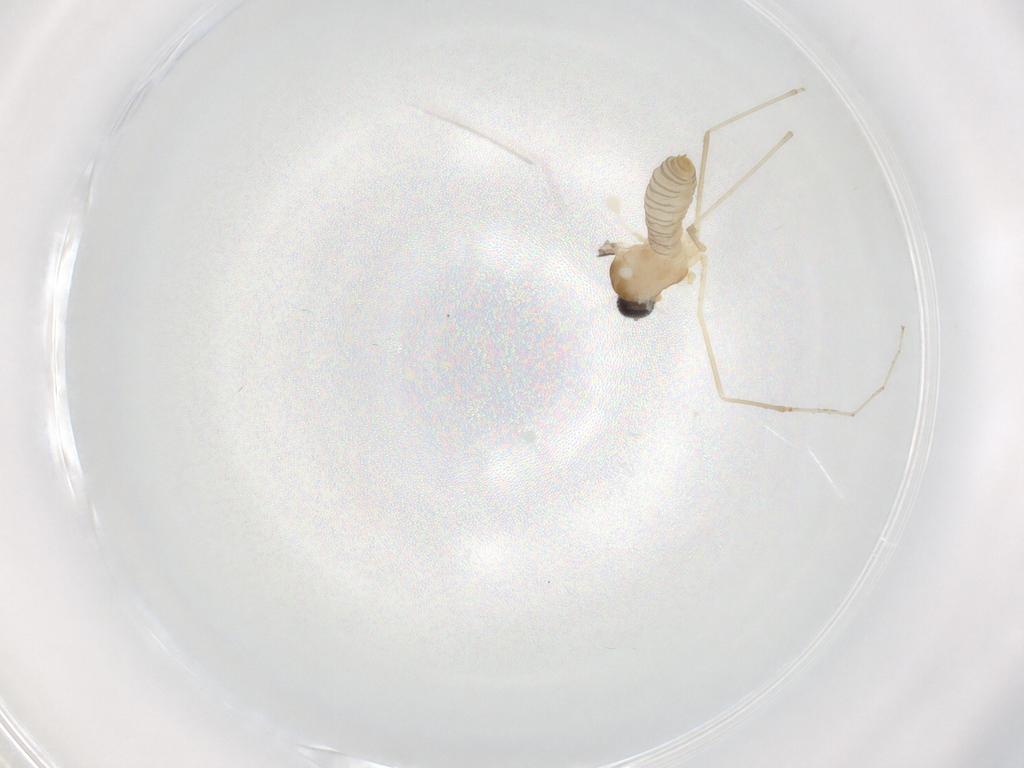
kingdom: Animalia
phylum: Arthropoda
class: Insecta
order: Diptera
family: Cecidomyiidae
